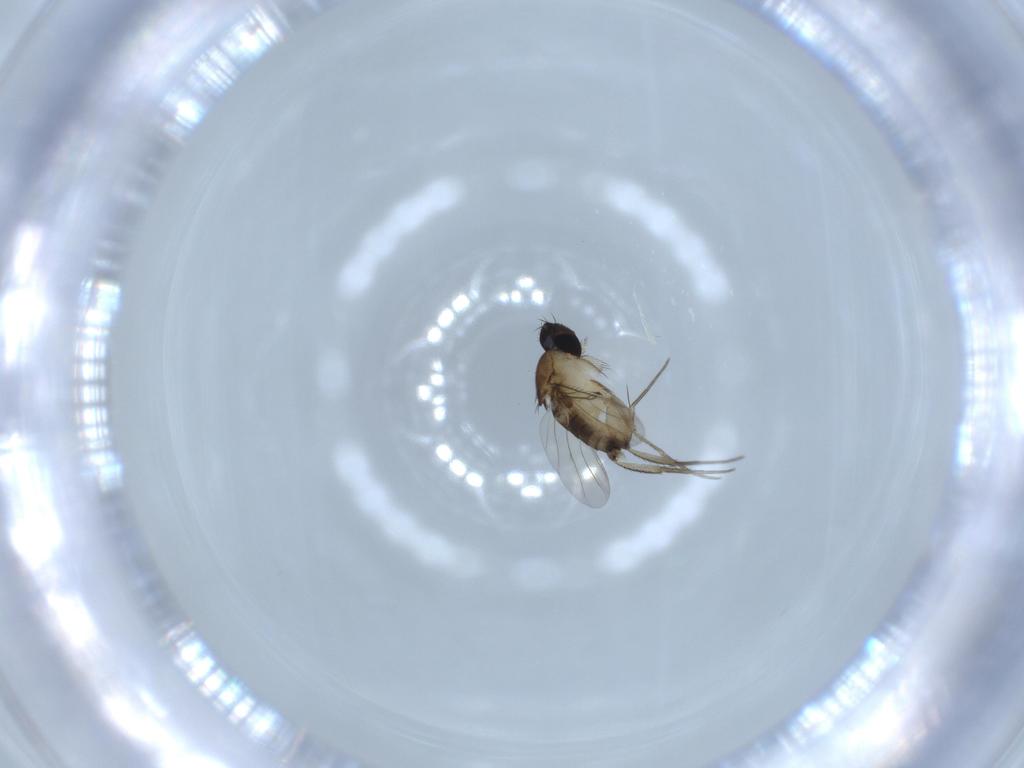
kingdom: Animalia
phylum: Arthropoda
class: Insecta
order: Diptera
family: Phoridae
